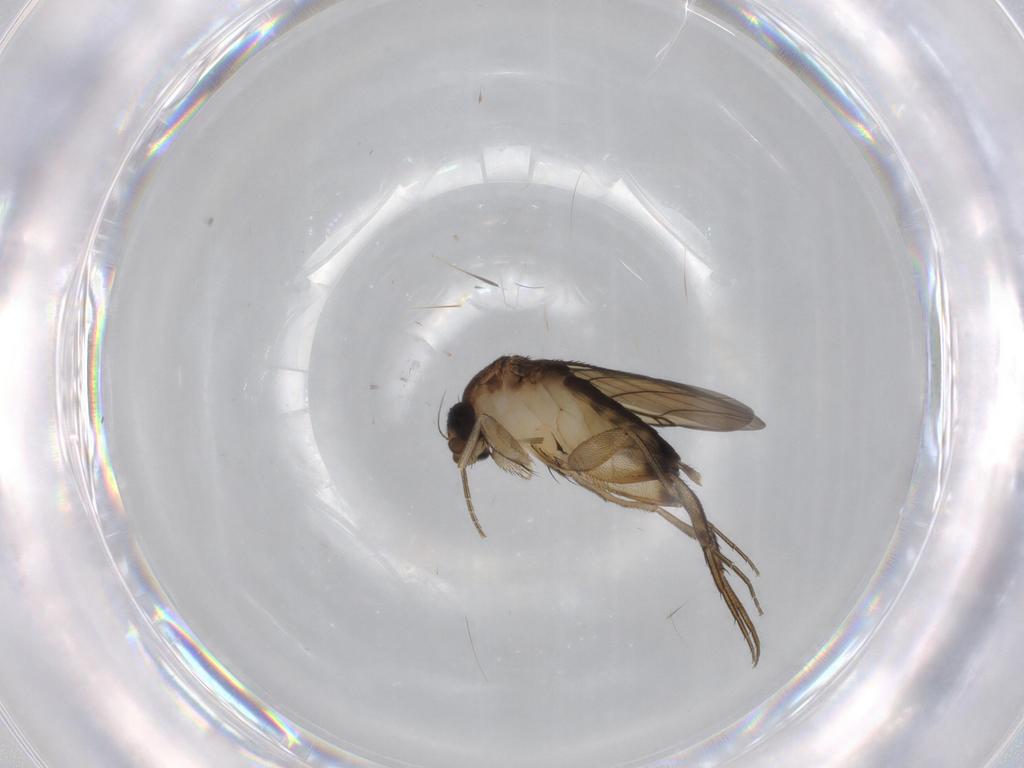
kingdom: Animalia
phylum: Arthropoda
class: Insecta
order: Diptera
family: Phoridae
